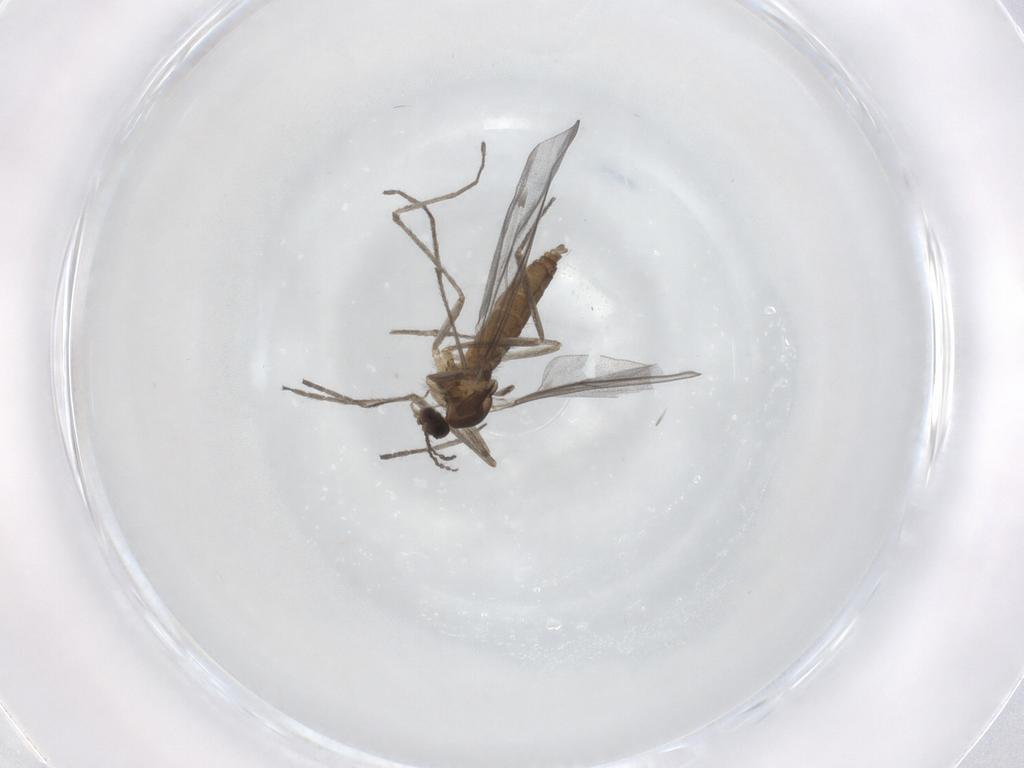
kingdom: Animalia
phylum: Arthropoda
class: Insecta
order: Diptera
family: Cecidomyiidae
